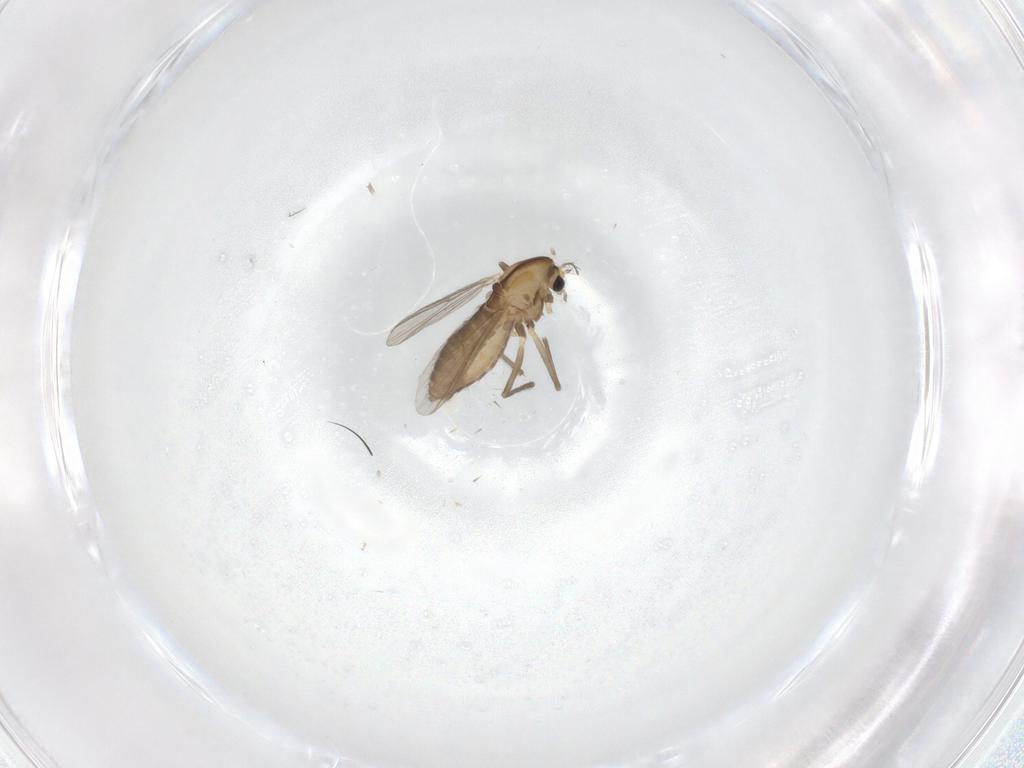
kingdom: Animalia
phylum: Arthropoda
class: Insecta
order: Diptera
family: Chironomidae
